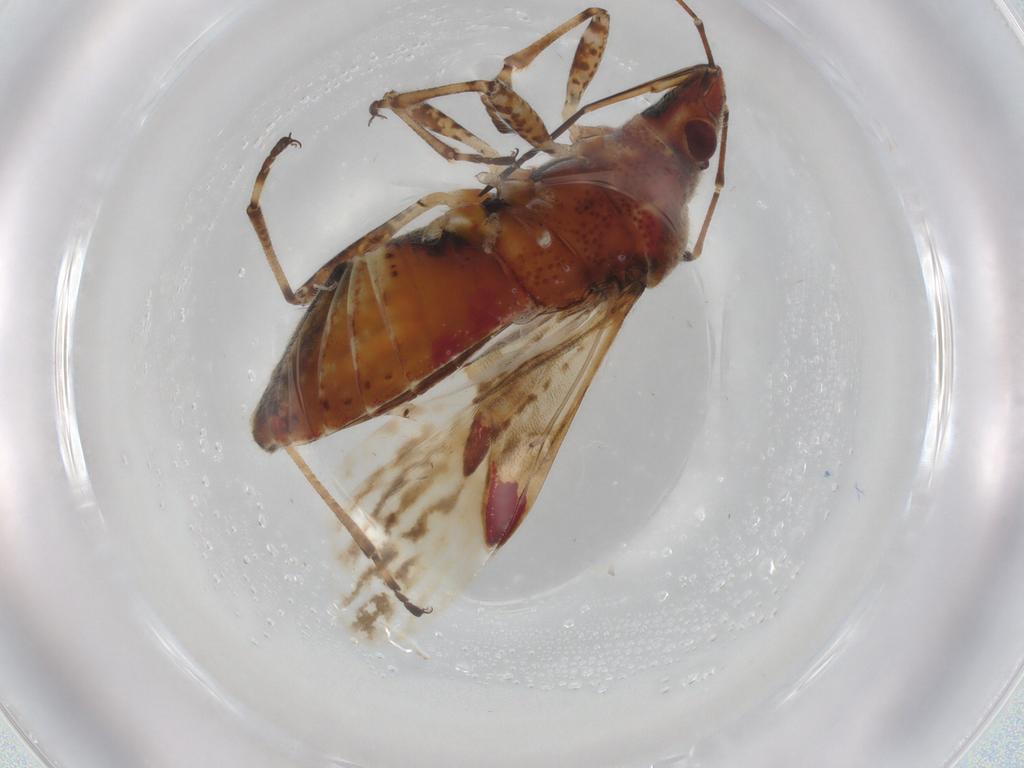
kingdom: Animalia
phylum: Arthropoda
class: Insecta
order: Hemiptera
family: Lygaeidae
